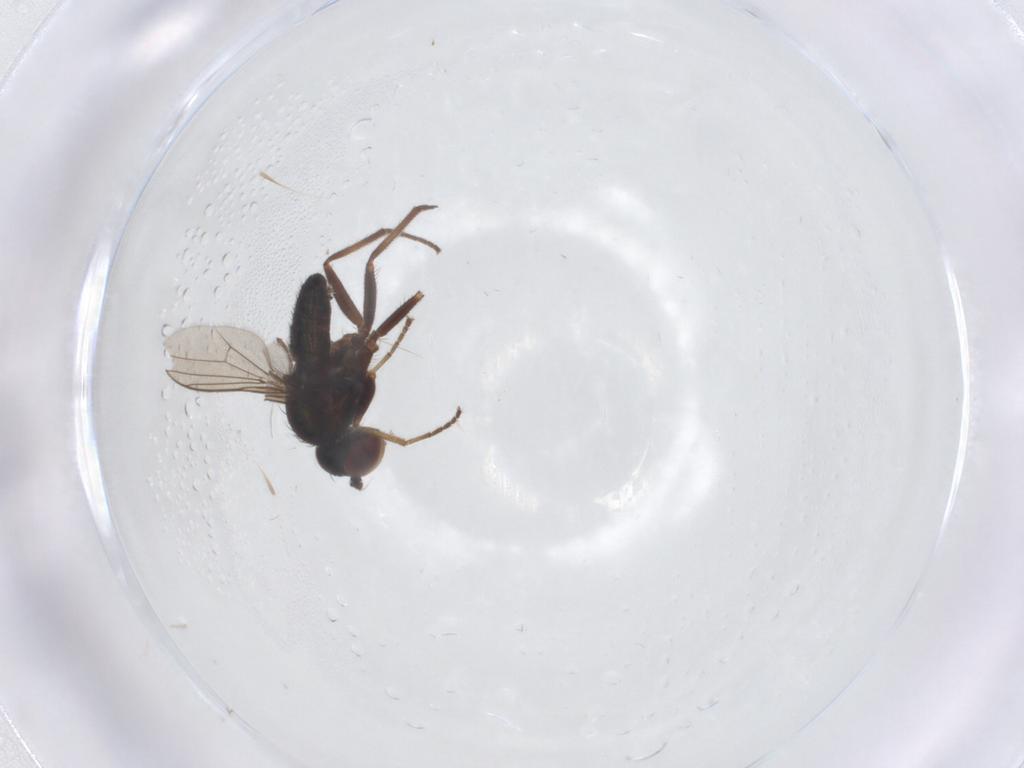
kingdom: Animalia
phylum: Arthropoda
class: Insecta
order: Diptera
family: Dolichopodidae
